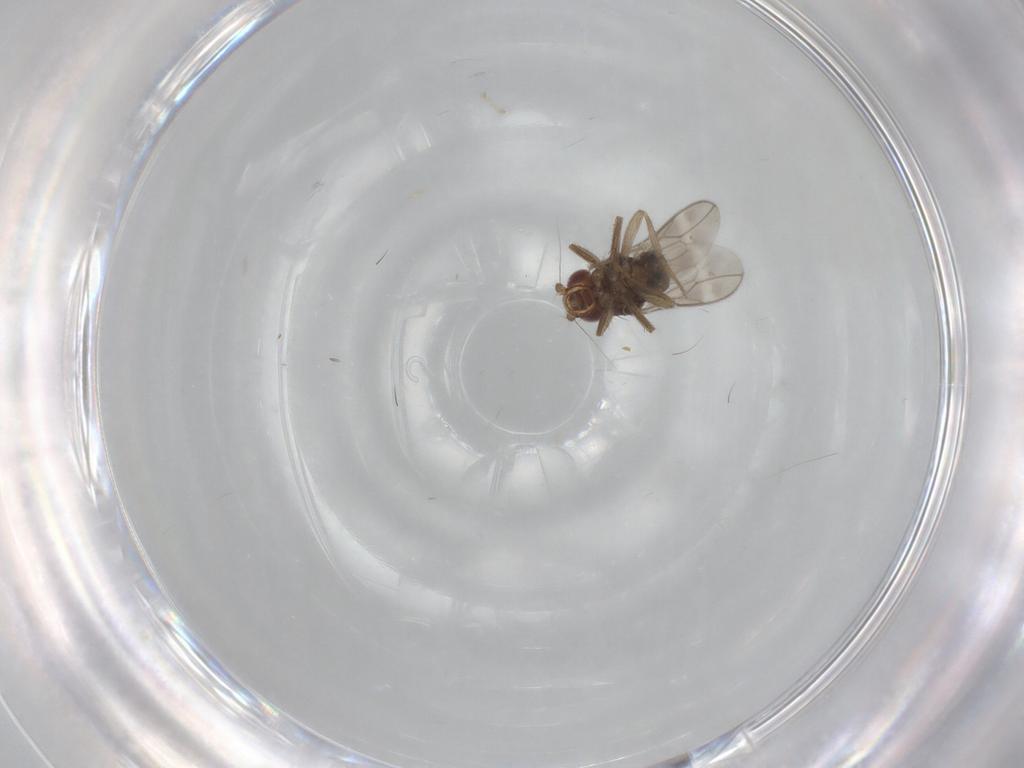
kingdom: Animalia
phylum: Arthropoda
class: Insecta
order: Diptera
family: Sphaeroceridae
